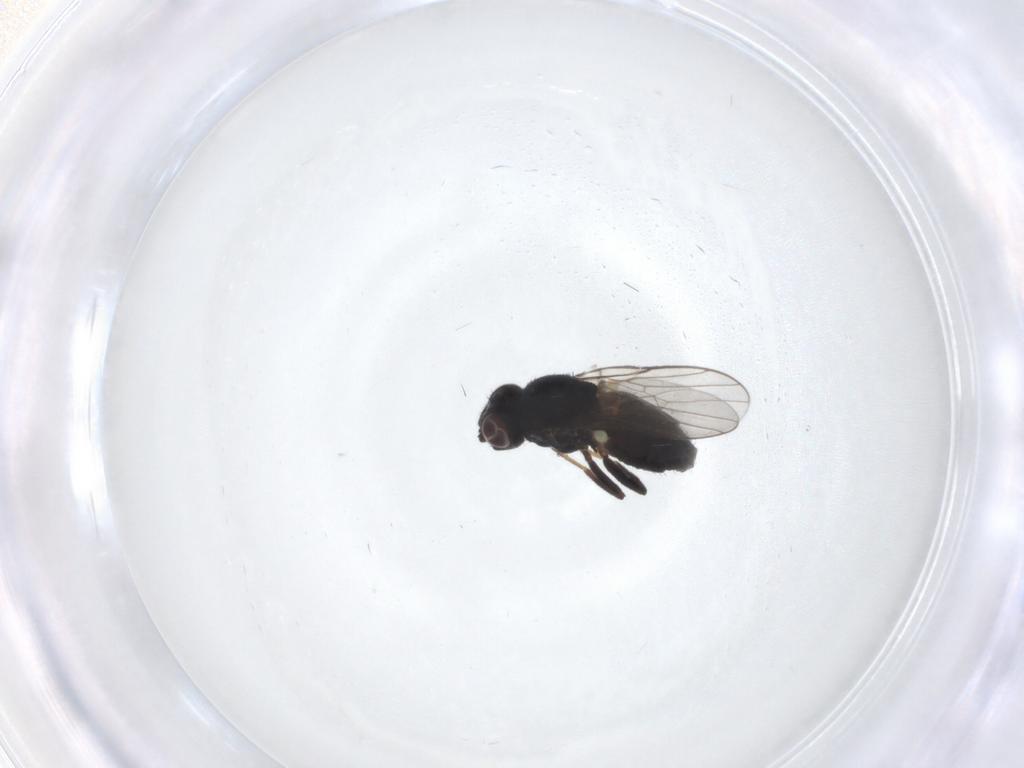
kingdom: Animalia
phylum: Arthropoda
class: Insecta
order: Diptera
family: Chloropidae
